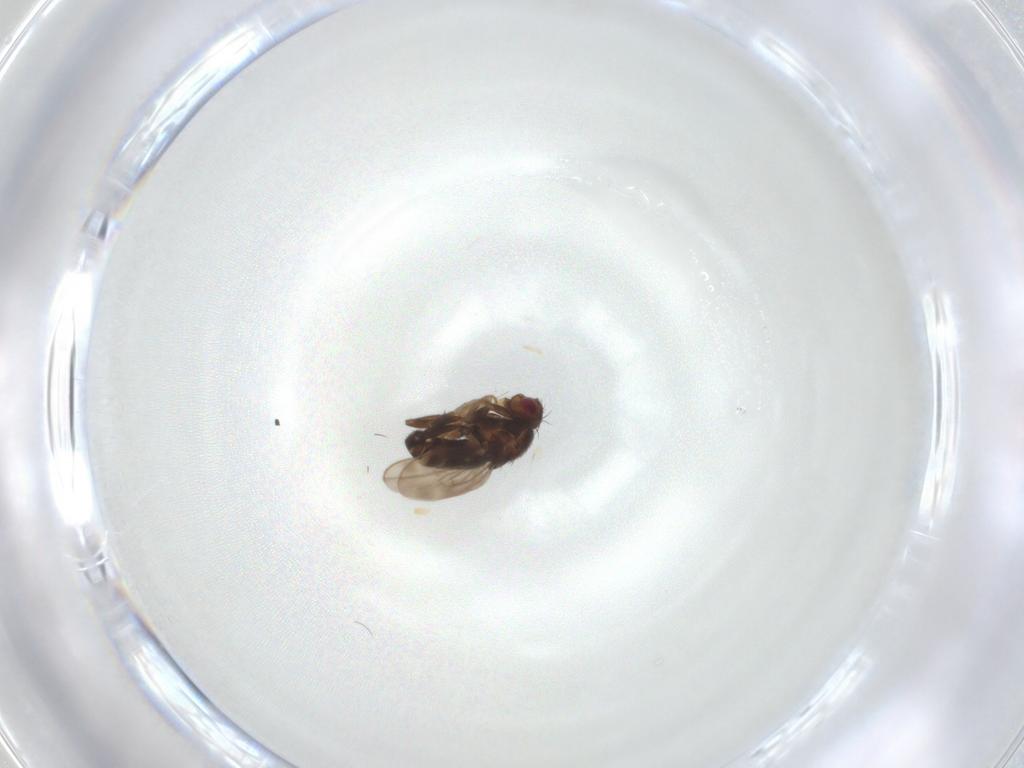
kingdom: Animalia
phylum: Arthropoda
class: Insecta
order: Diptera
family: Sphaeroceridae
